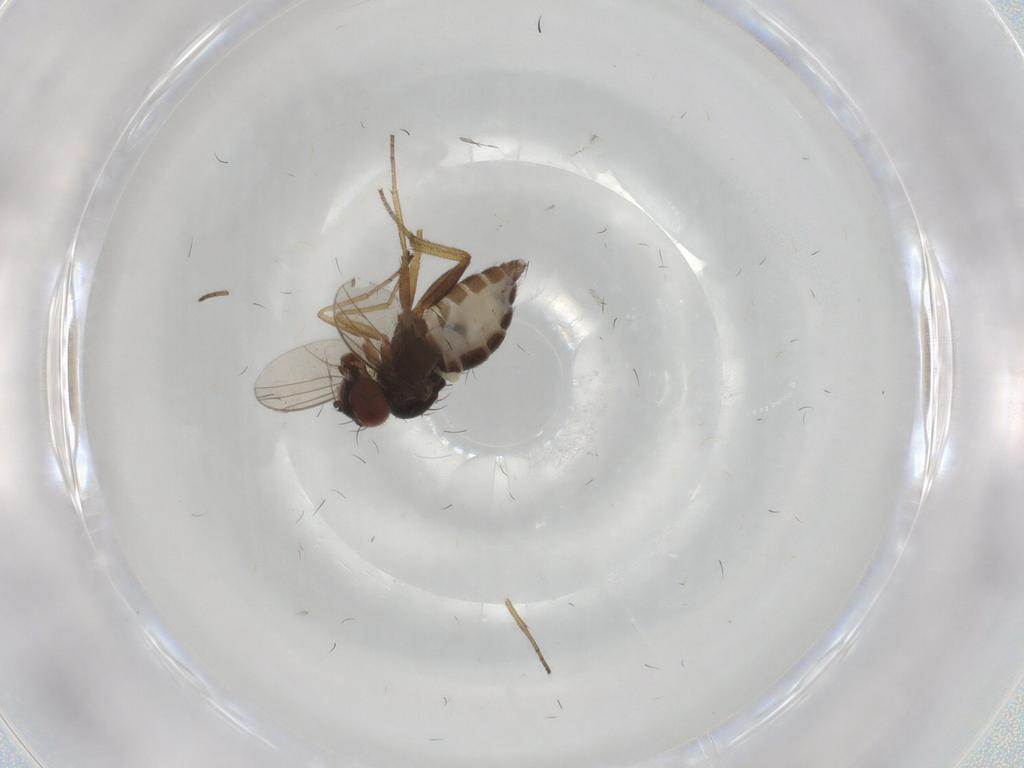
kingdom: Animalia
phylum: Arthropoda
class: Insecta
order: Diptera
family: Dolichopodidae
